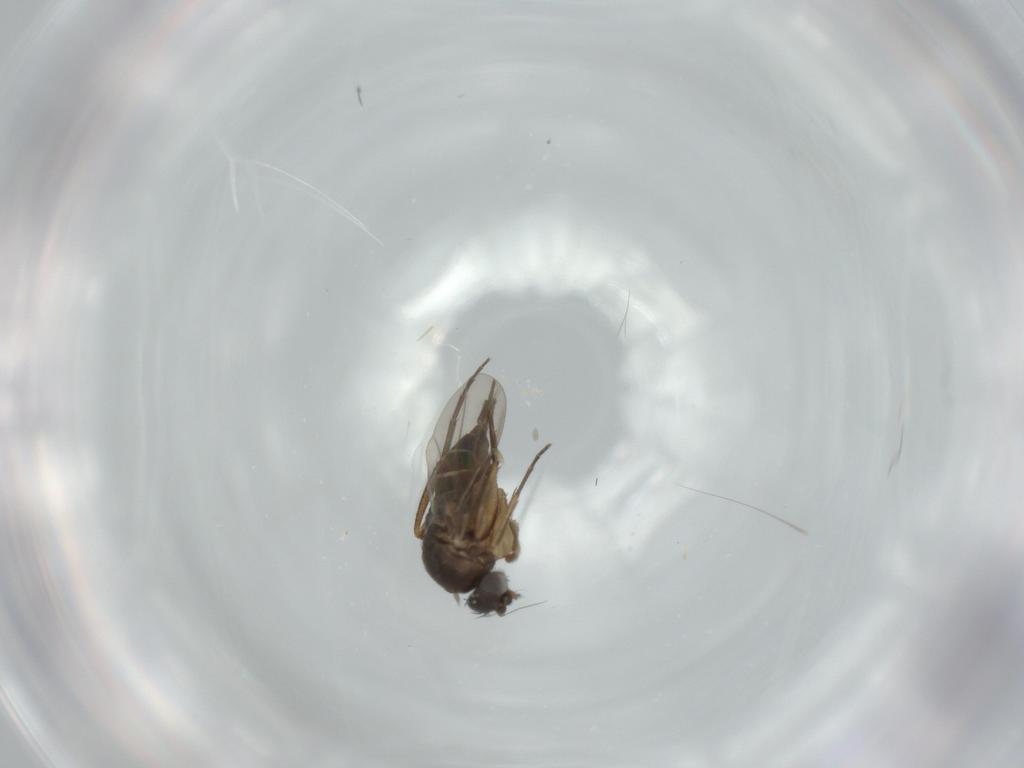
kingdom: Animalia
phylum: Arthropoda
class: Insecta
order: Diptera
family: Phoridae
